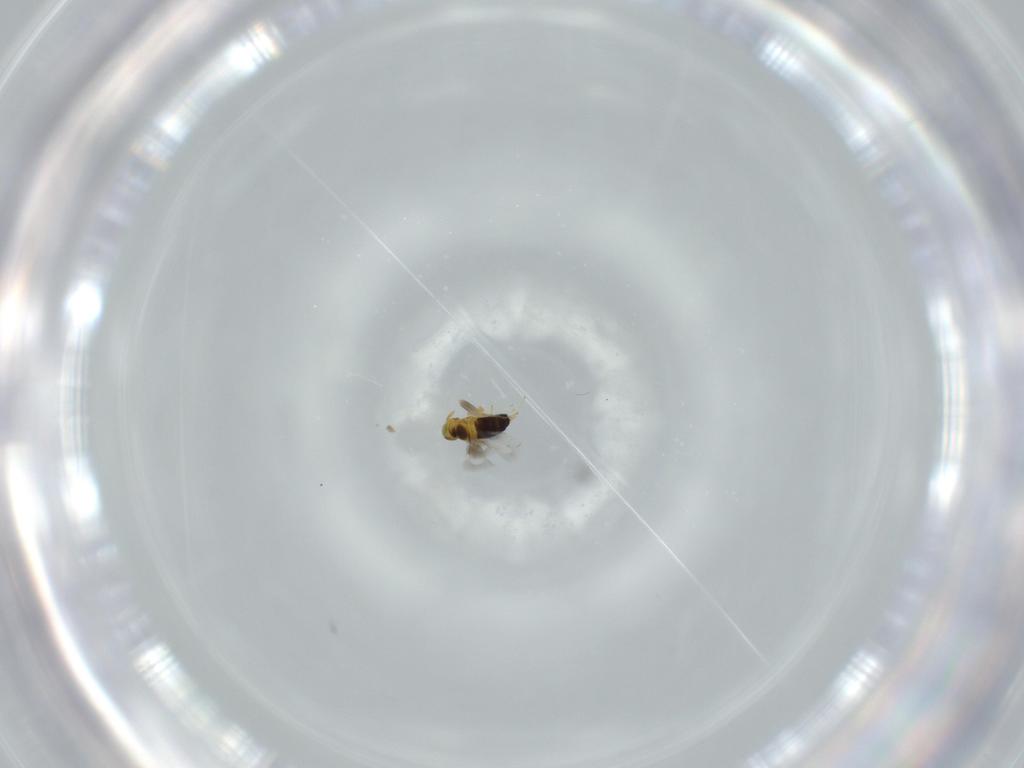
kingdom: Animalia
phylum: Arthropoda
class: Insecta
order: Hymenoptera
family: Signiphoridae
